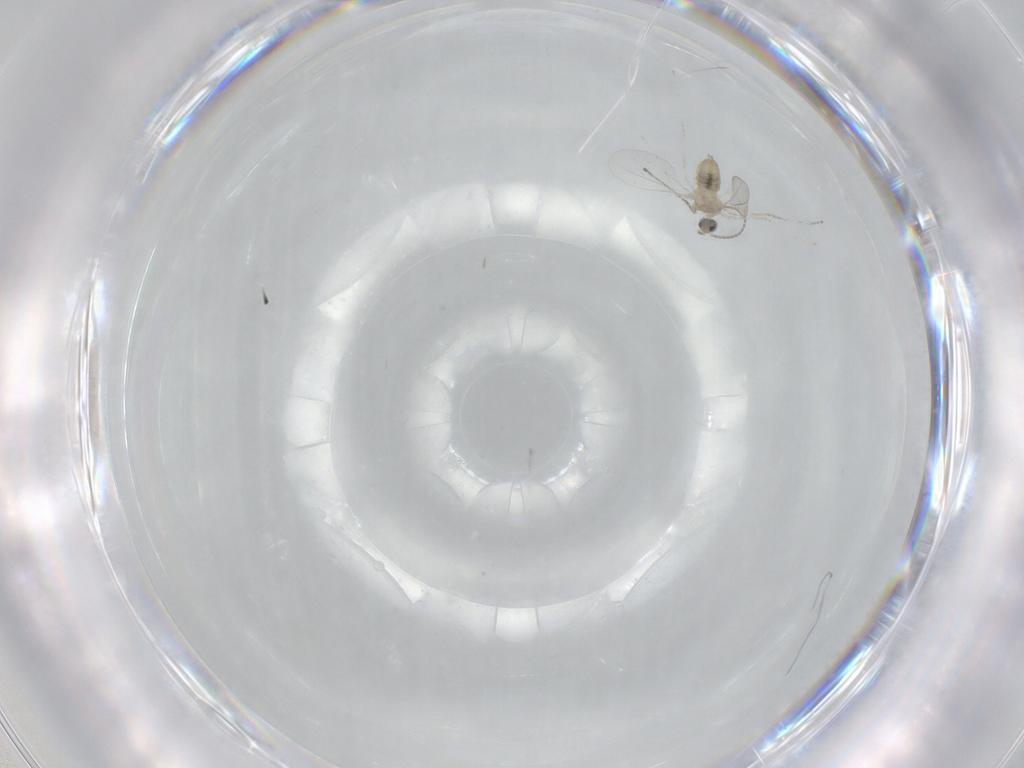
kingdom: Animalia
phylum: Arthropoda
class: Insecta
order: Diptera
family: Cecidomyiidae
